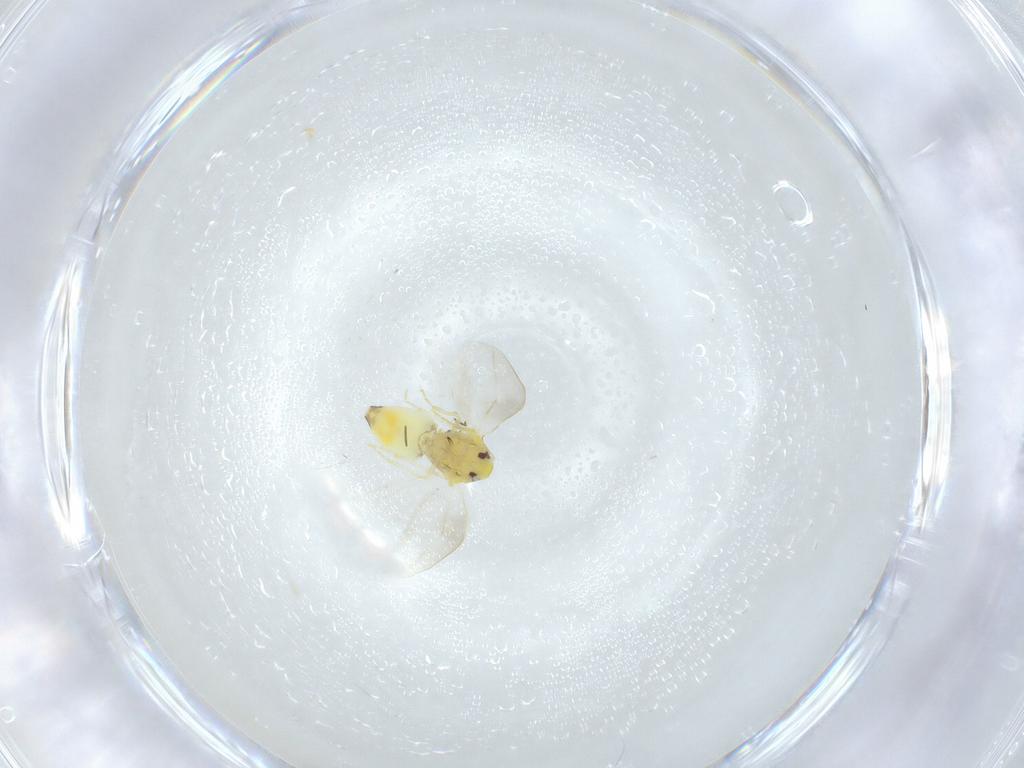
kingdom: Animalia
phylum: Arthropoda
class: Insecta
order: Hemiptera
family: Aleyrodidae
